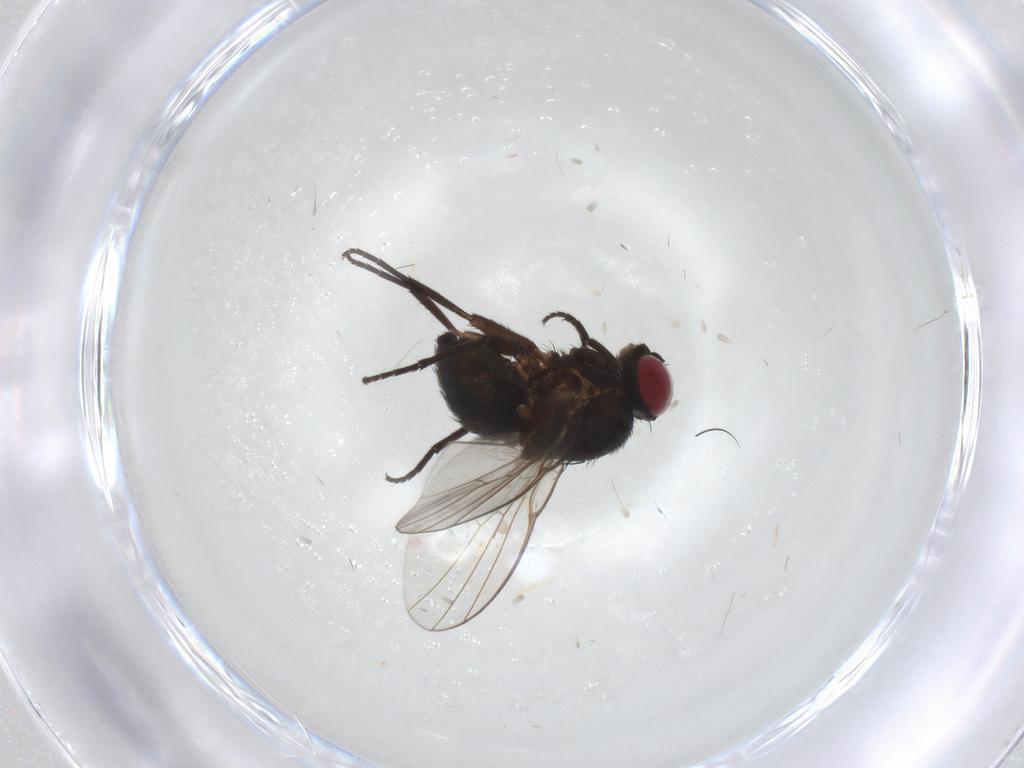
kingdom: Animalia
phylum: Arthropoda
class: Insecta
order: Diptera
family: Agromyzidae
